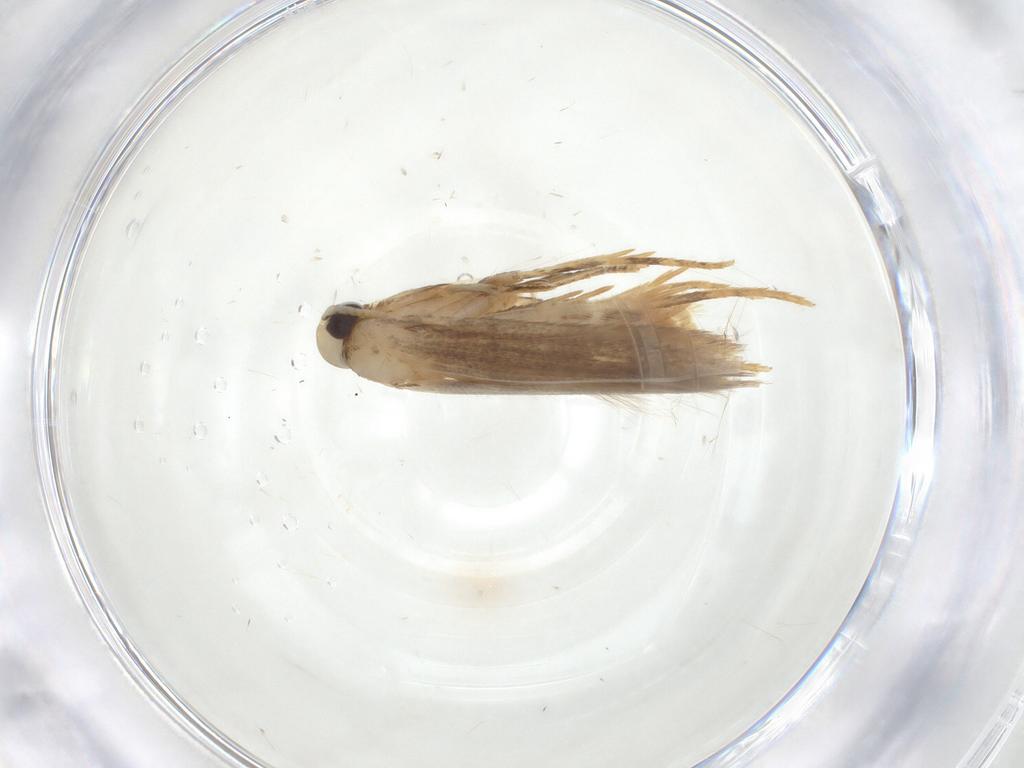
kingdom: Animalia
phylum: Arthropoda
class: Insecta
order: Lepidoptera
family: Coleophoridae
